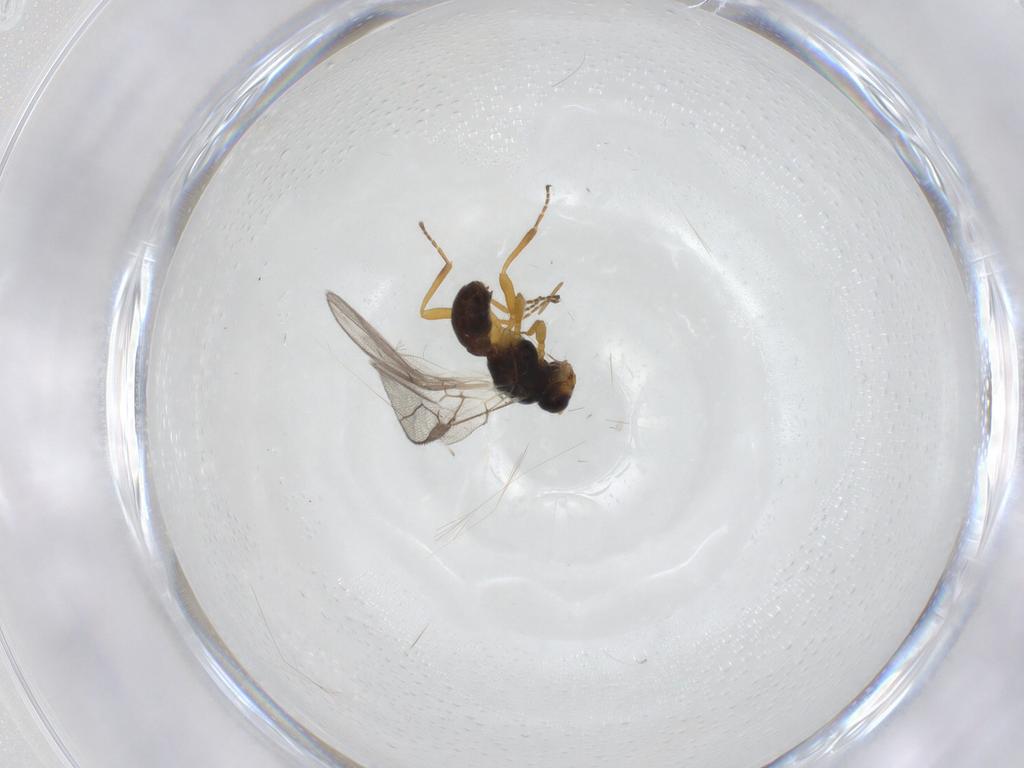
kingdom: Animalia
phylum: Arthropoda
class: Insecta
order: Hymenoptera
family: Braconidae
